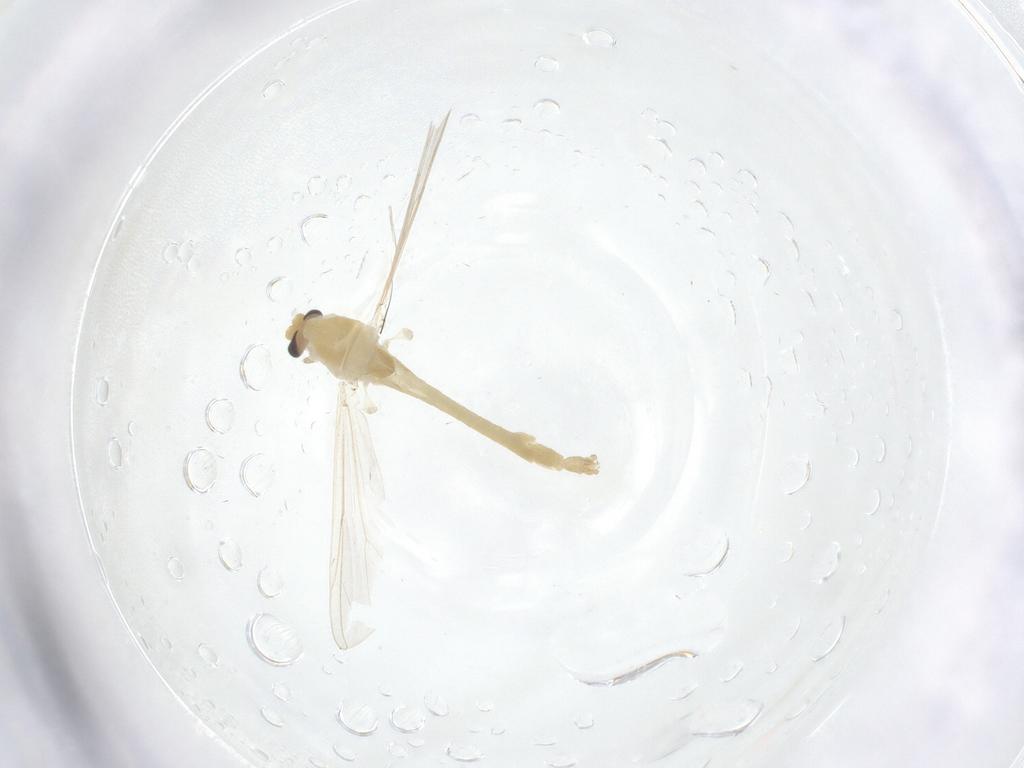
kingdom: Animalia
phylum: Arthropoda
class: Insecta
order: Diptera
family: Chironomidae
